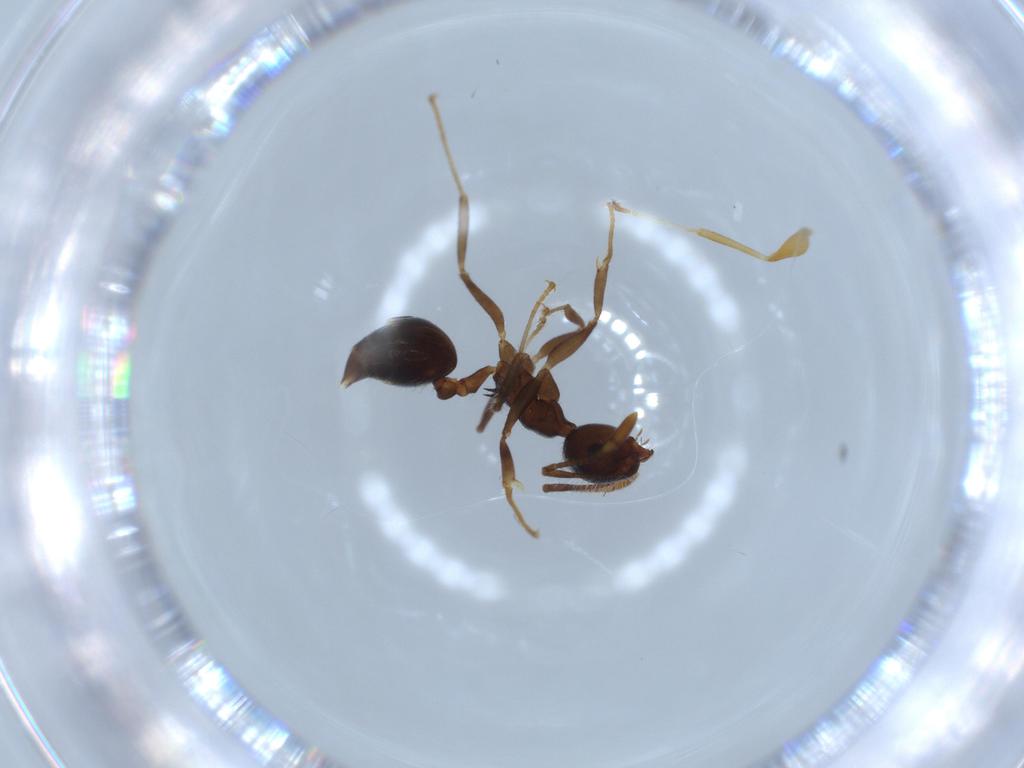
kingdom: Animalia
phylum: Arthropoda
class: Insecta
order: Hymenoptera
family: Dryinidae
